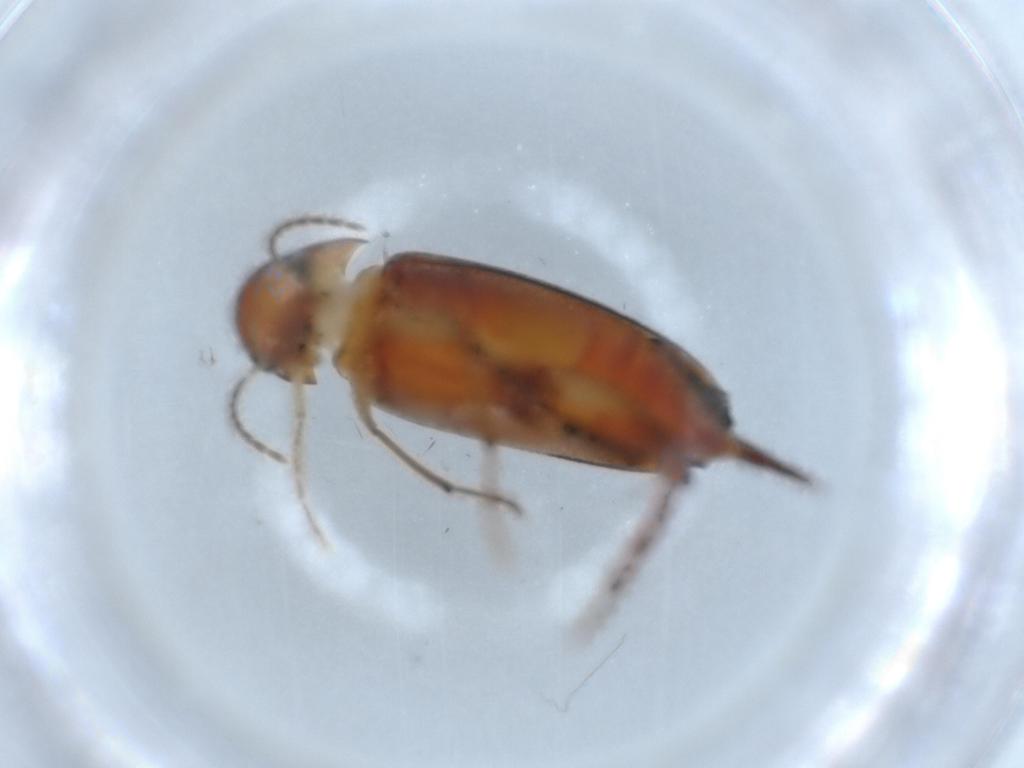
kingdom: Animalia
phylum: Arthropoda
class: Insecta
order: Coleoptera
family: Mordellidae
